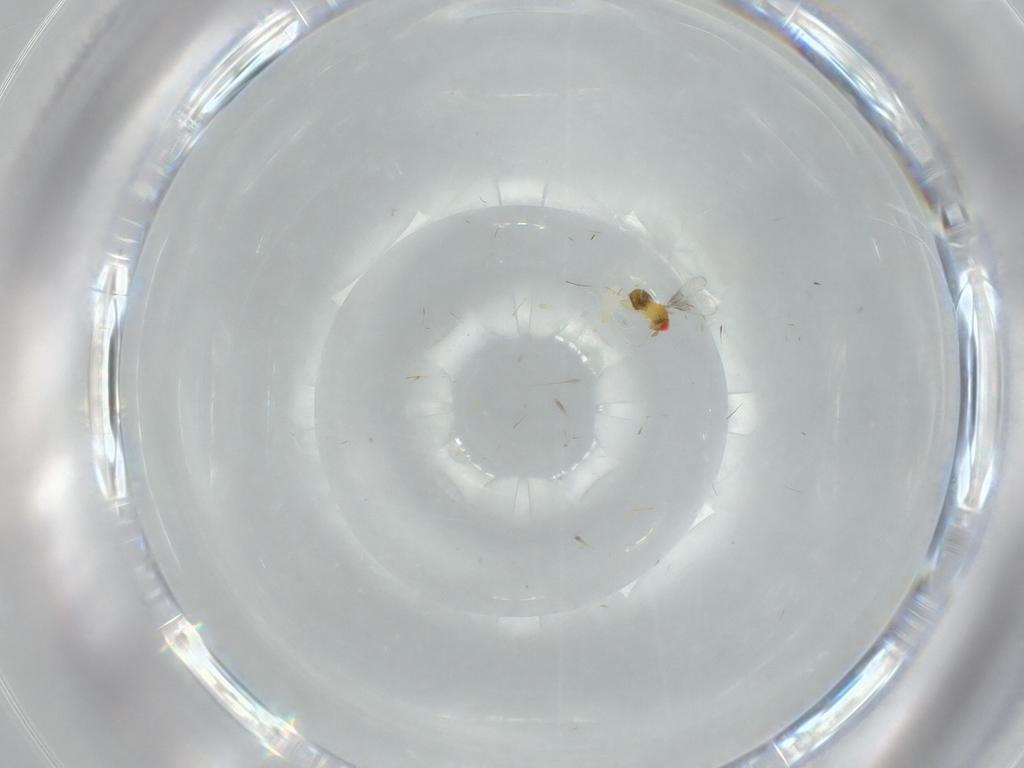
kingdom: Animalia
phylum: Arthropoda
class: Insecta
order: Hymenoptera
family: Trichogrammatidae
